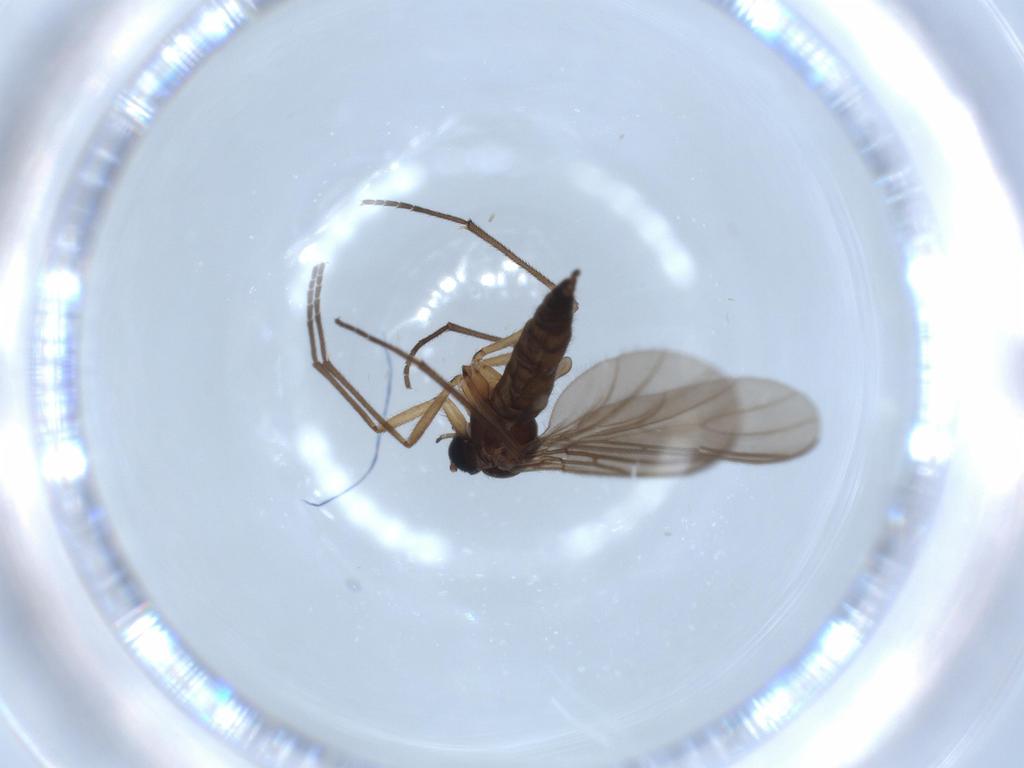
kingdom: Animalia
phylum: Arthropoda
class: Insecta
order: Diptera
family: Sciaridae
